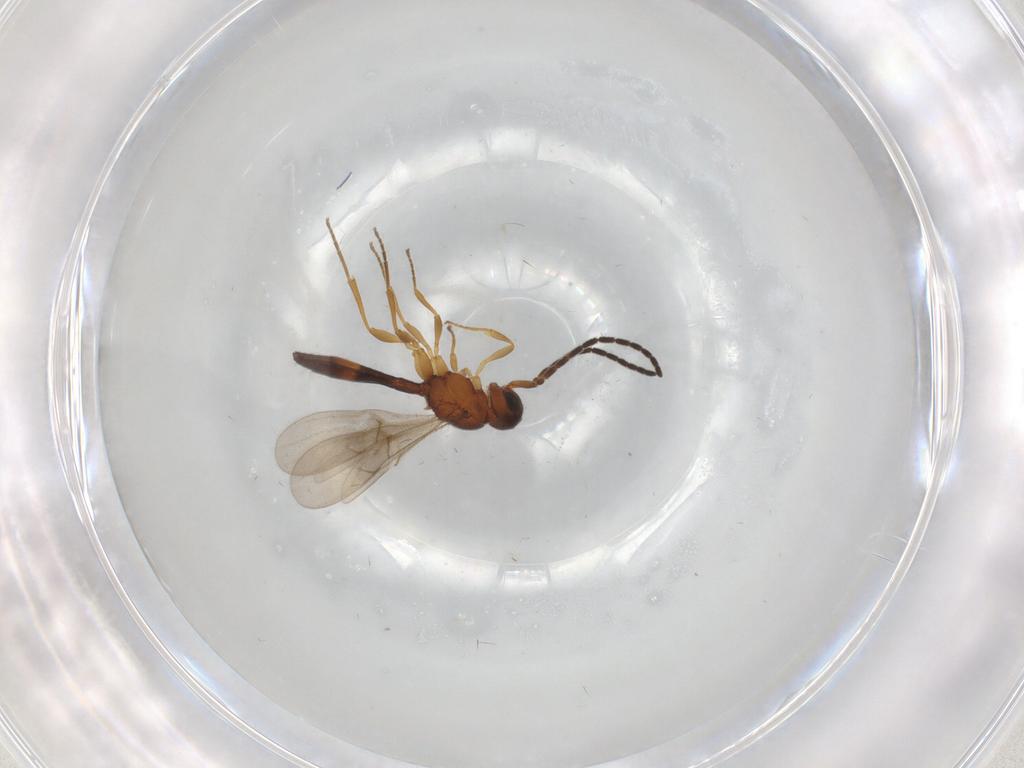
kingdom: Animalia
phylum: Arthropoda
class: Insecta
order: Hymenoptera
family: Scelionidae
